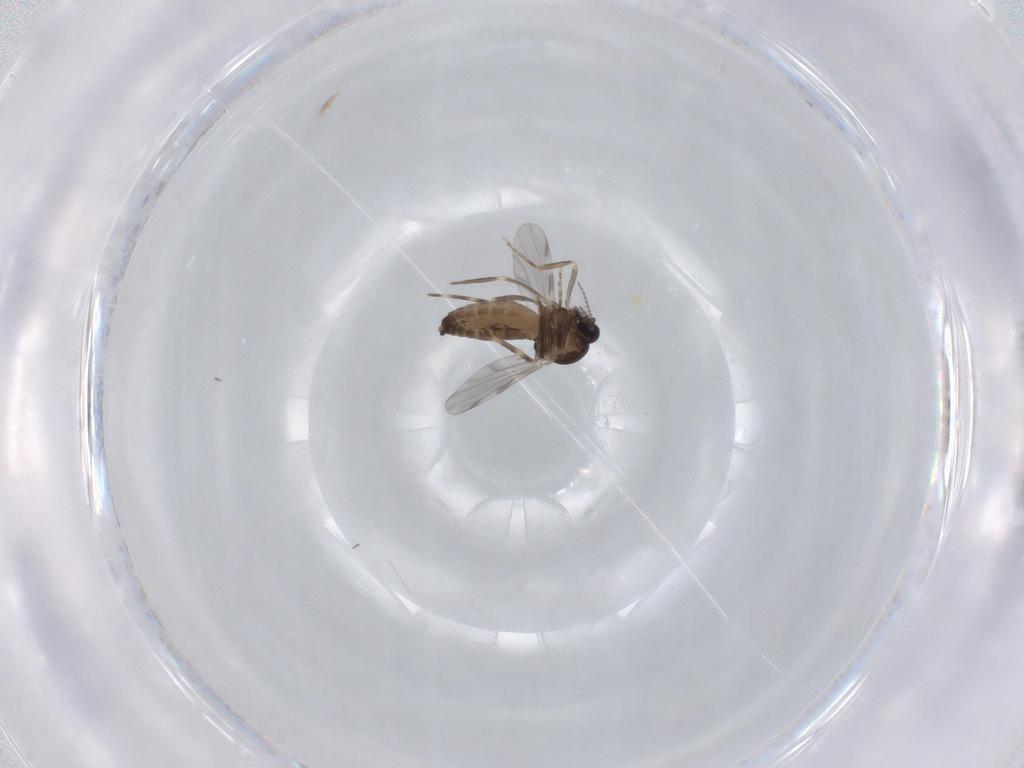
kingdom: Animalia
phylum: Arthropoda
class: Insecta
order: Diptera
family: Ceratopogonidae
